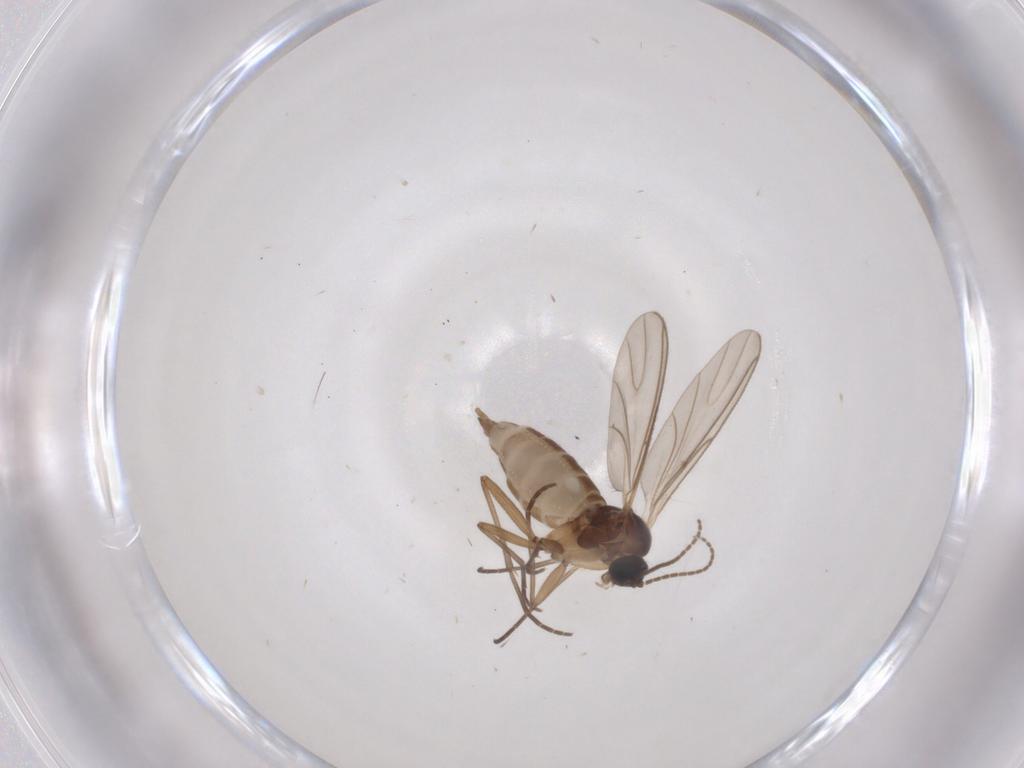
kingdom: Animalia
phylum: Arthropoda
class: Insecta
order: Diptera
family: Sciaridae
